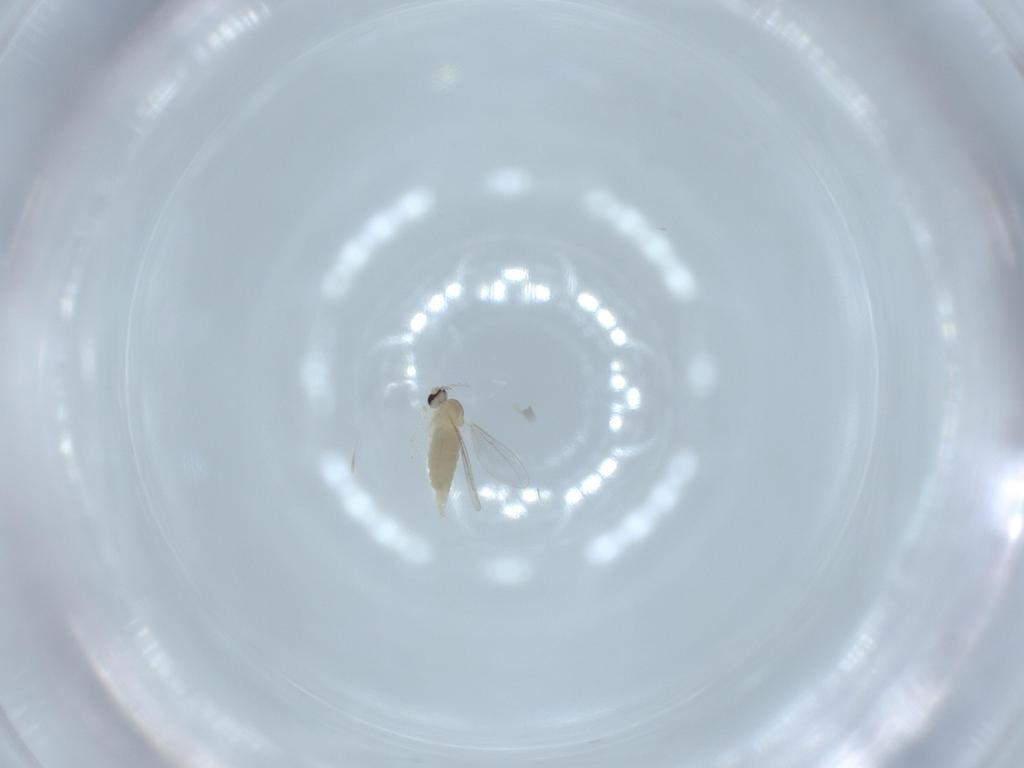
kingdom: Animalia
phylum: Arthropoda
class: Insecta
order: Diptera
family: Cecidomyiidae
